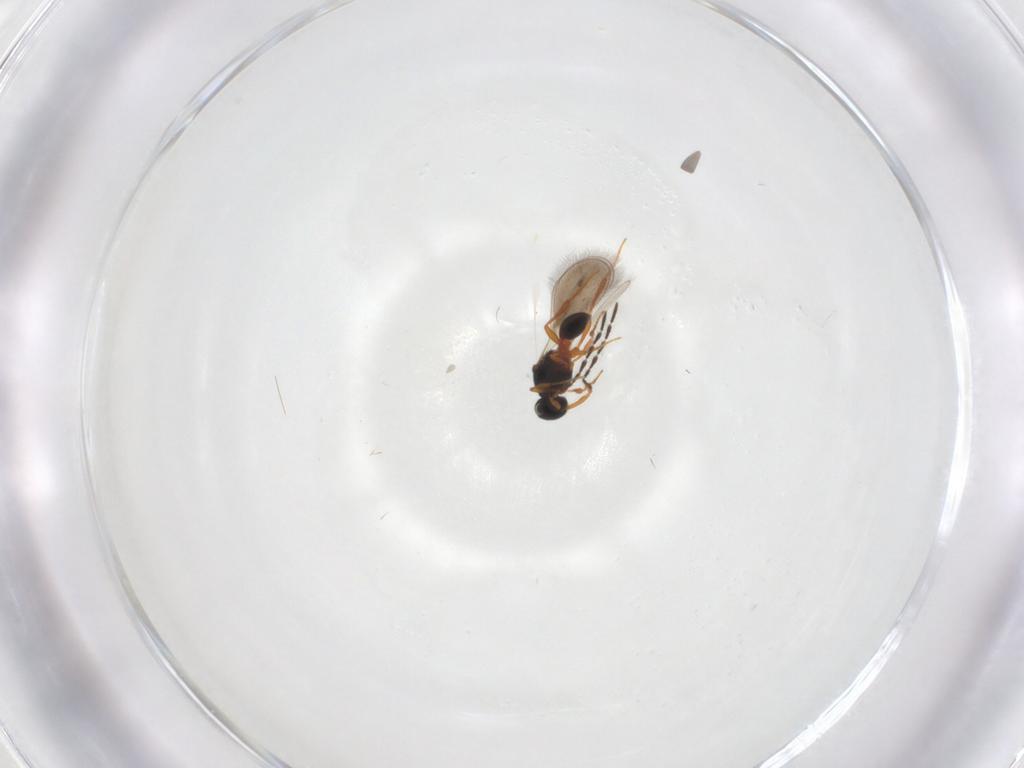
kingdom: Animalia
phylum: Arthropoda
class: Insecta
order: Hymenoptera
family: Platygastridae
